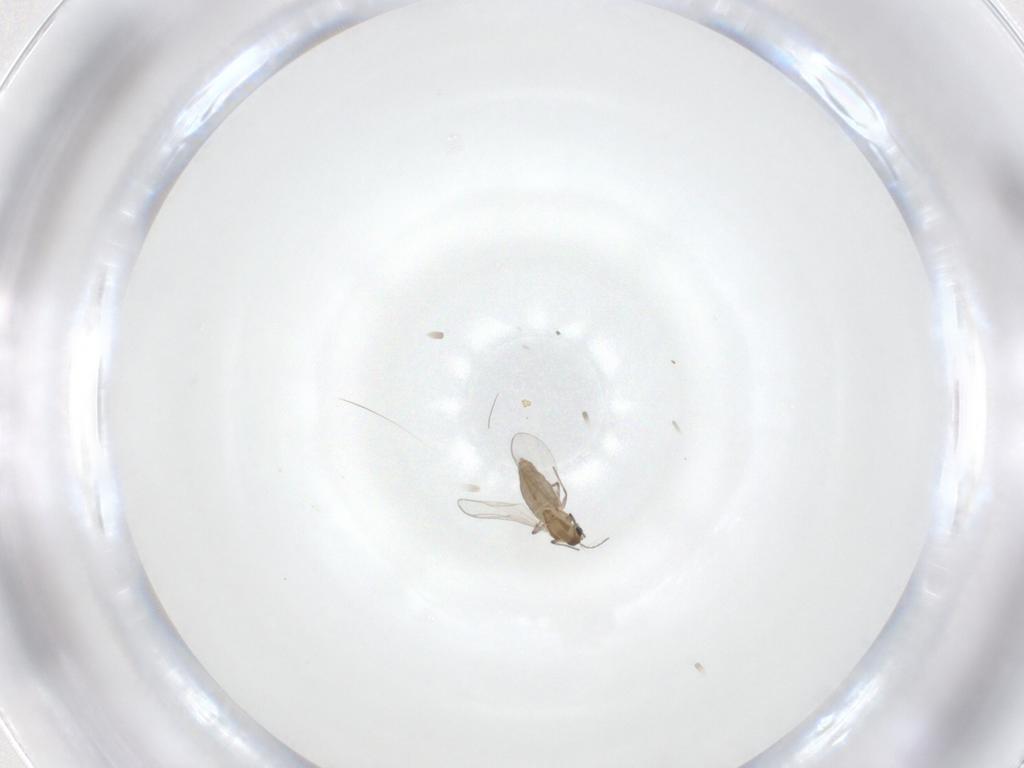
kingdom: Animalia
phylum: Arthropoda
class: Insecta
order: Diptera
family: Chironomidae
